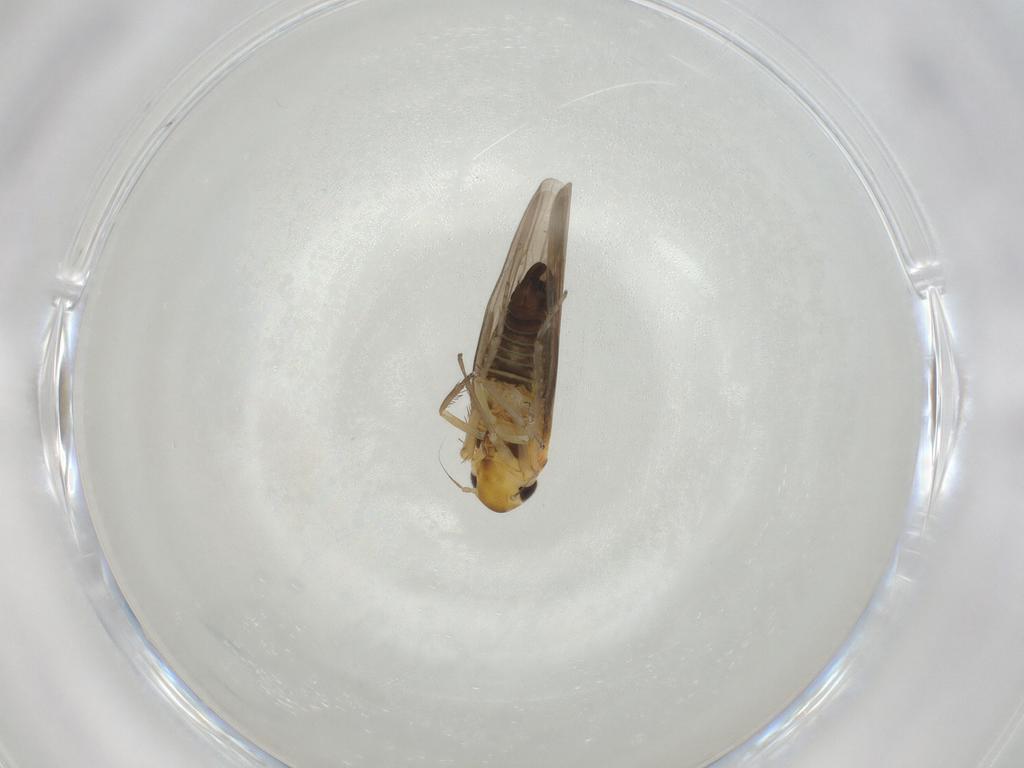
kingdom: Animalia
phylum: Arthropoda
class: Insecta
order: Hemiptera
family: Cicadellidae
